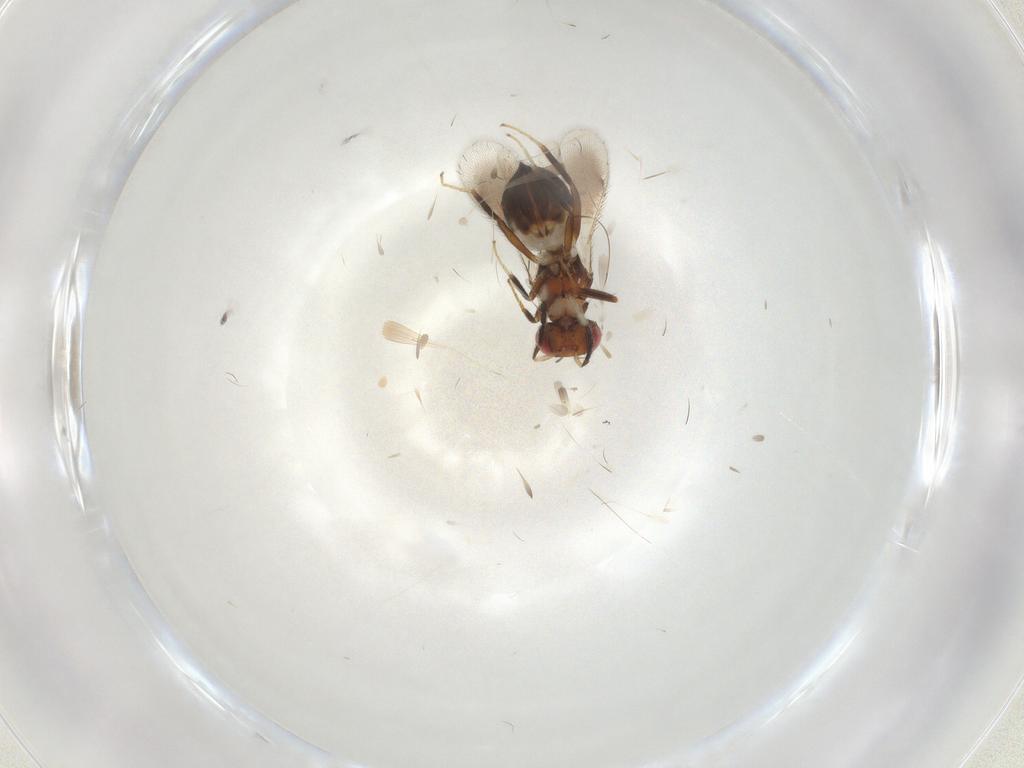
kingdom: Animalia
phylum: Arthropoda
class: Insecta
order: Hymenoptera
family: Eulophidae
